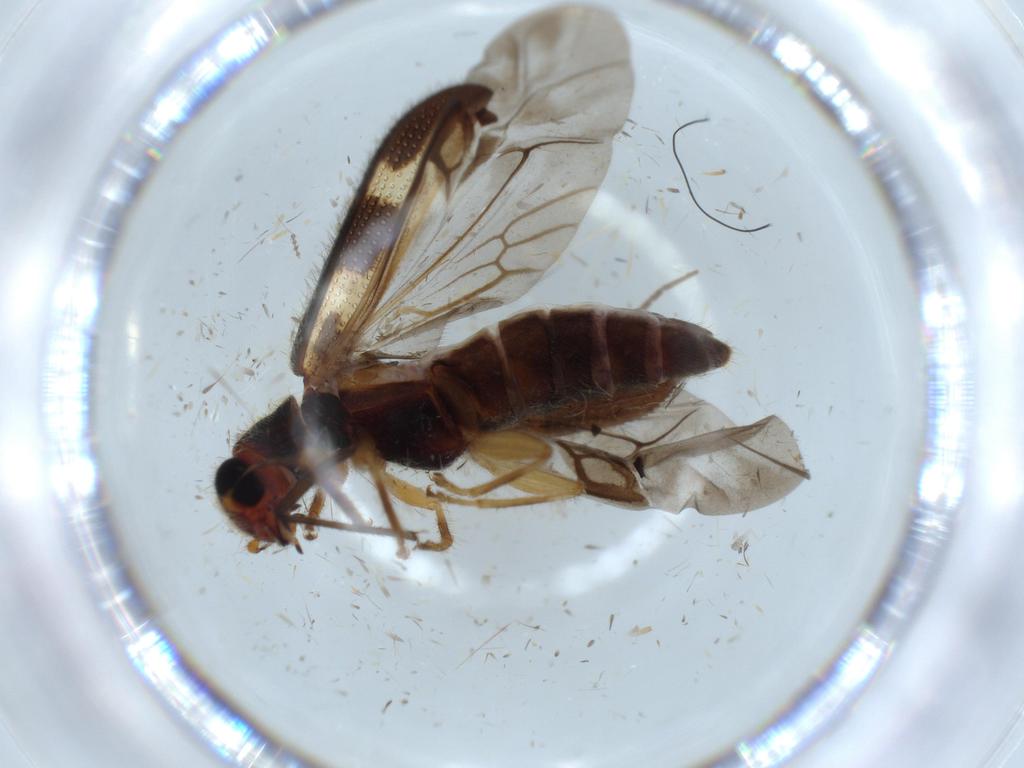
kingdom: Animalia
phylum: Arthropoda
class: Insecta
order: Coleoptera
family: Cleridae
